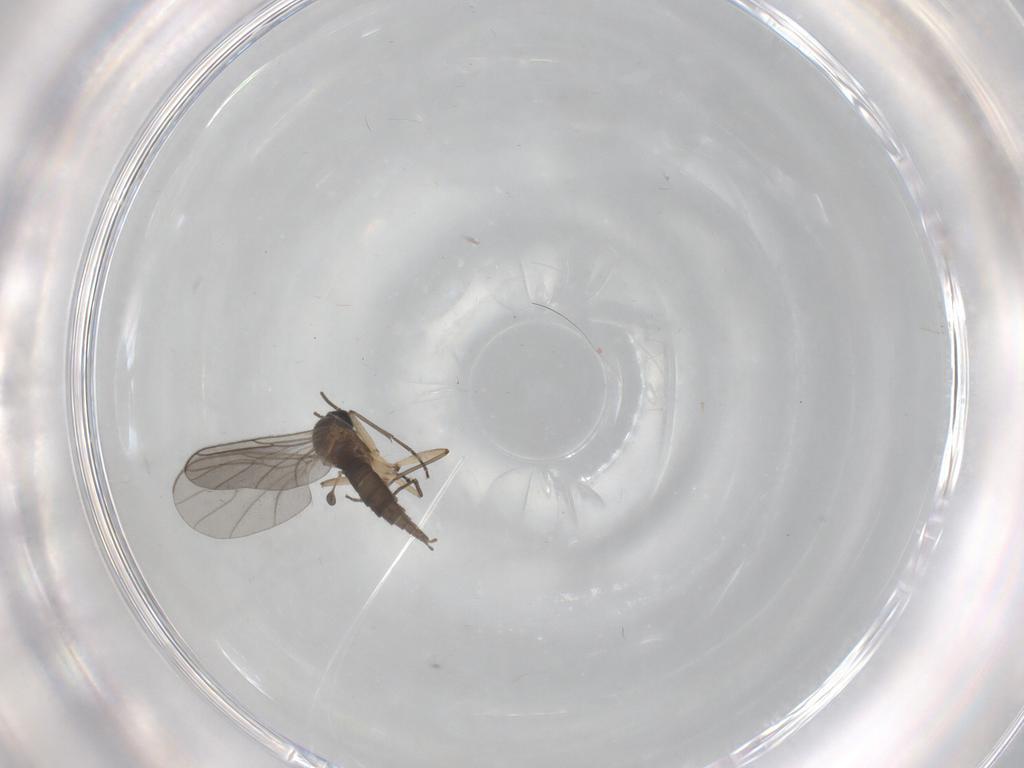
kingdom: Animalia
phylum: Arthropoda
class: Insecta
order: Diptera
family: Sciaridae
